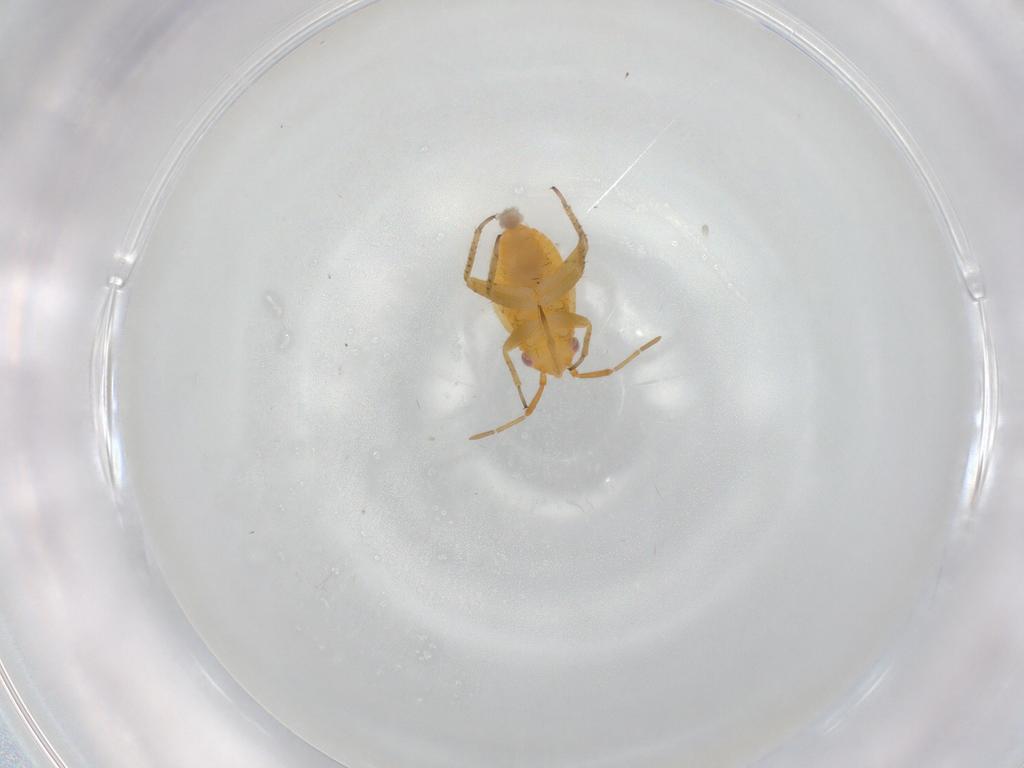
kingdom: Animalia
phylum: Arthropoda
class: Insecta
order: Hemiptera
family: Miridae
